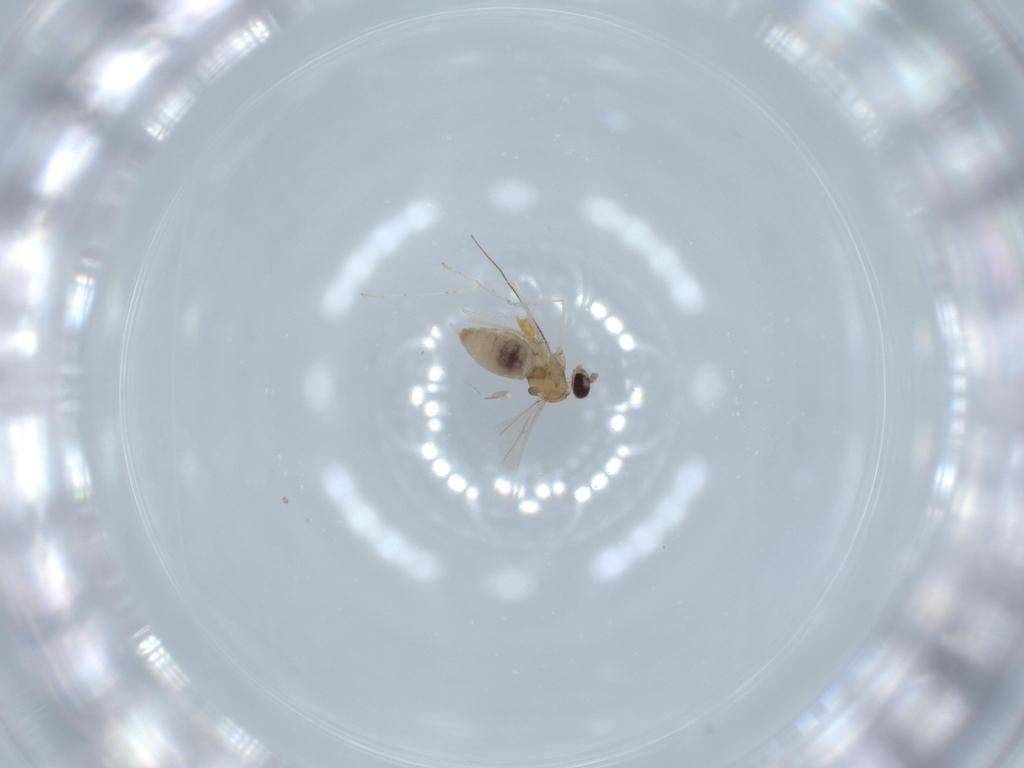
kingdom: Animalia
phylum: Arthropoda
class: Insecta
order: Diptera
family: Cecidomyiidae
